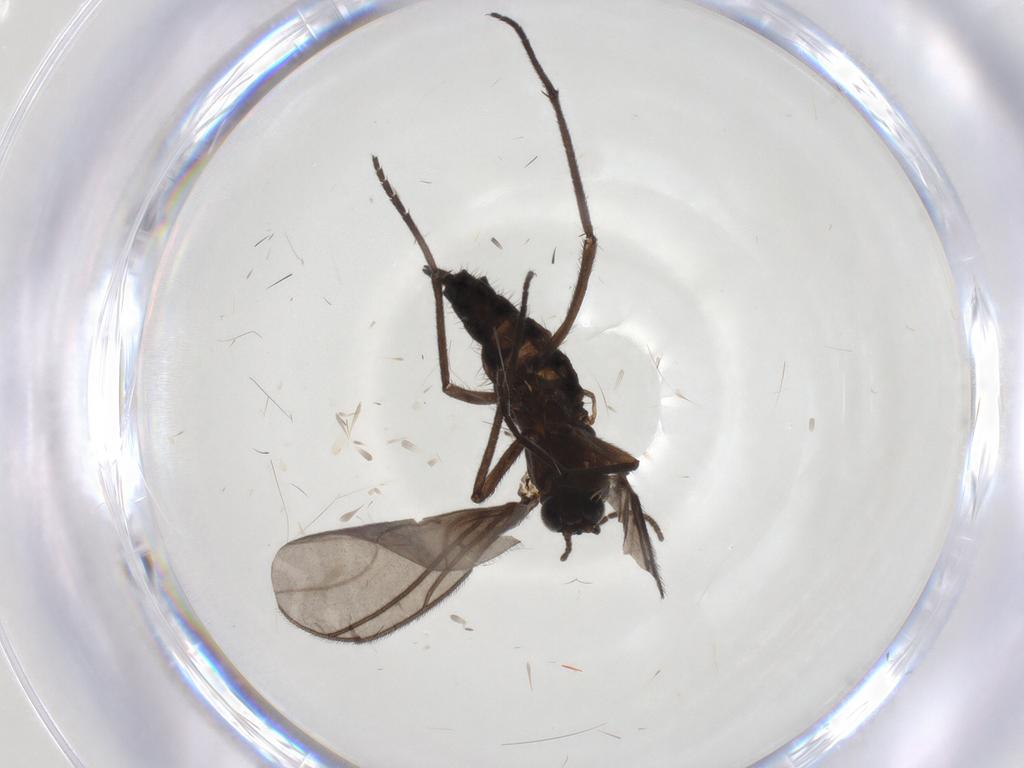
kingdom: Animalia
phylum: Arthropoda
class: Insecta
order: Diptera
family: Sciaridae
